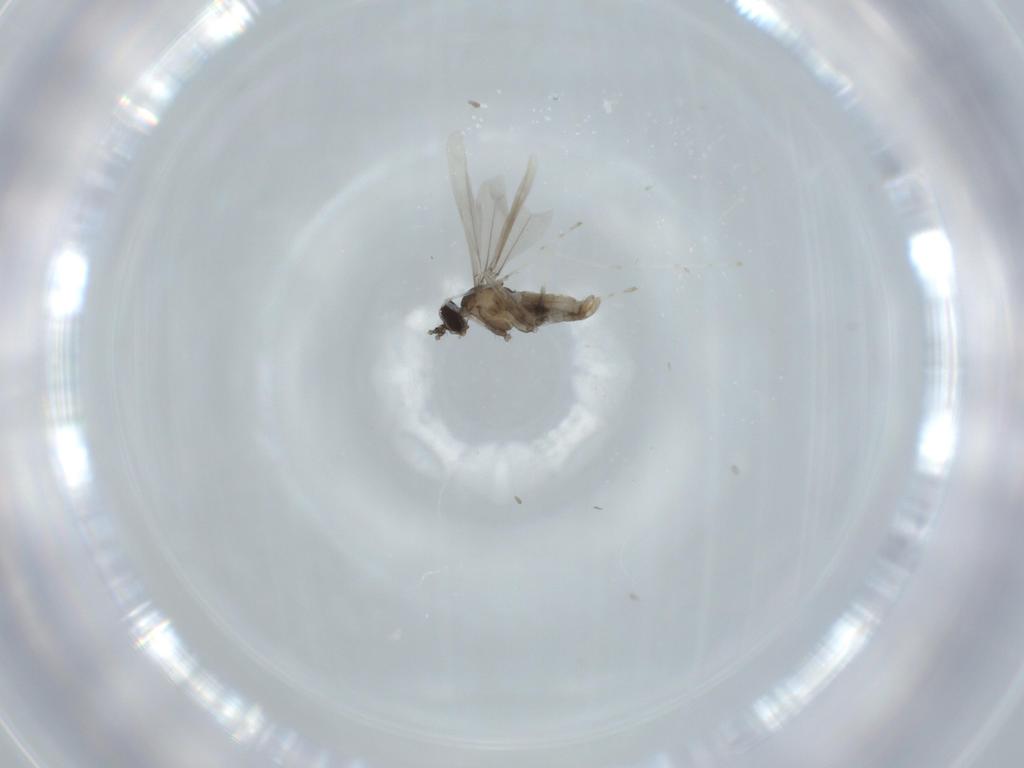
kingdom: Animalia
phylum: Arthropoda
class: Insecta
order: Diptera
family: Cecidomyiidae
